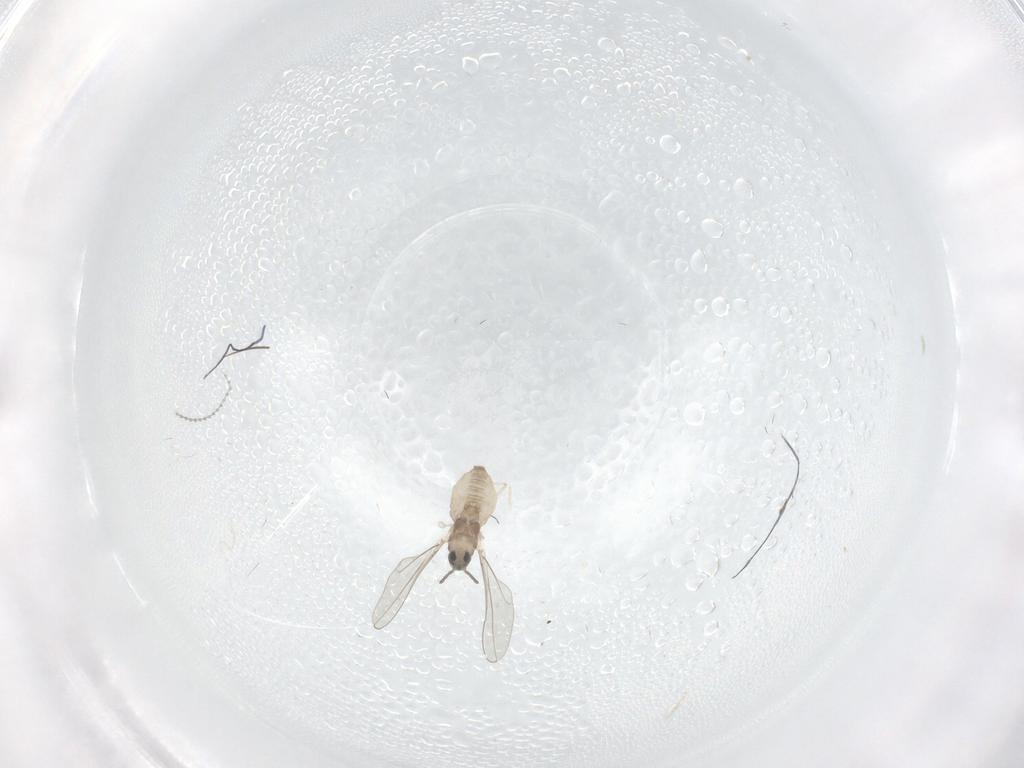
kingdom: Animalia
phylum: Arthropoda
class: Insecta
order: Diptera
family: Cecidomyiidae
